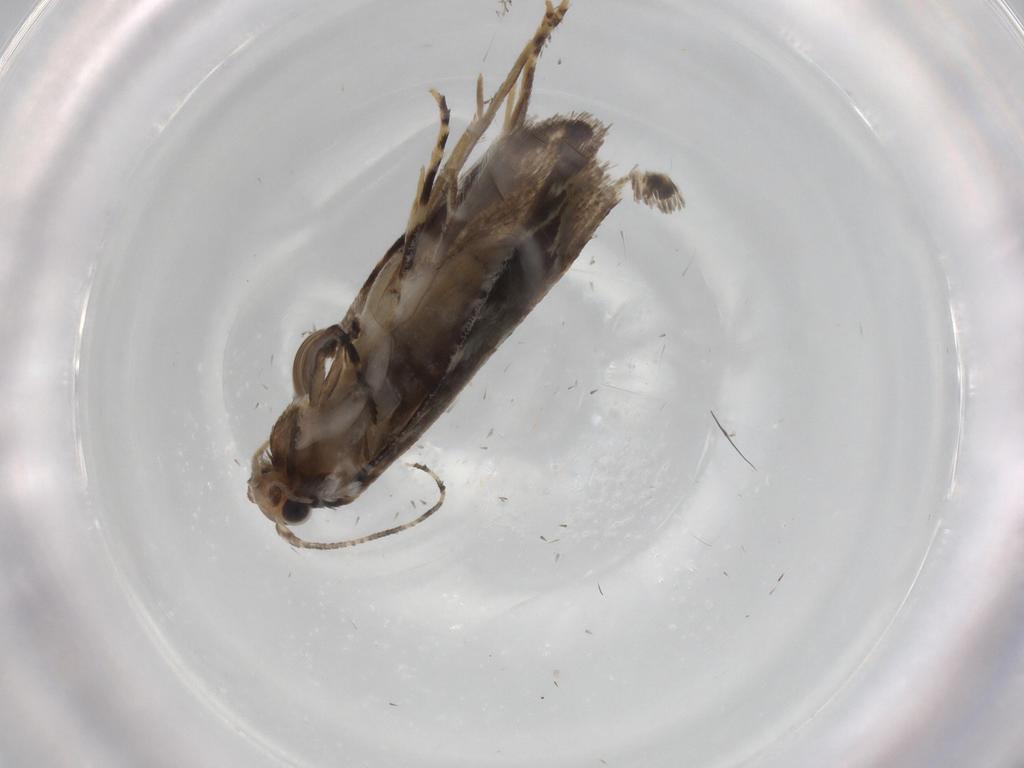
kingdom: Animalia
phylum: Arthropoda
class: Insecta
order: Lepidoptera
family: Tineidae
